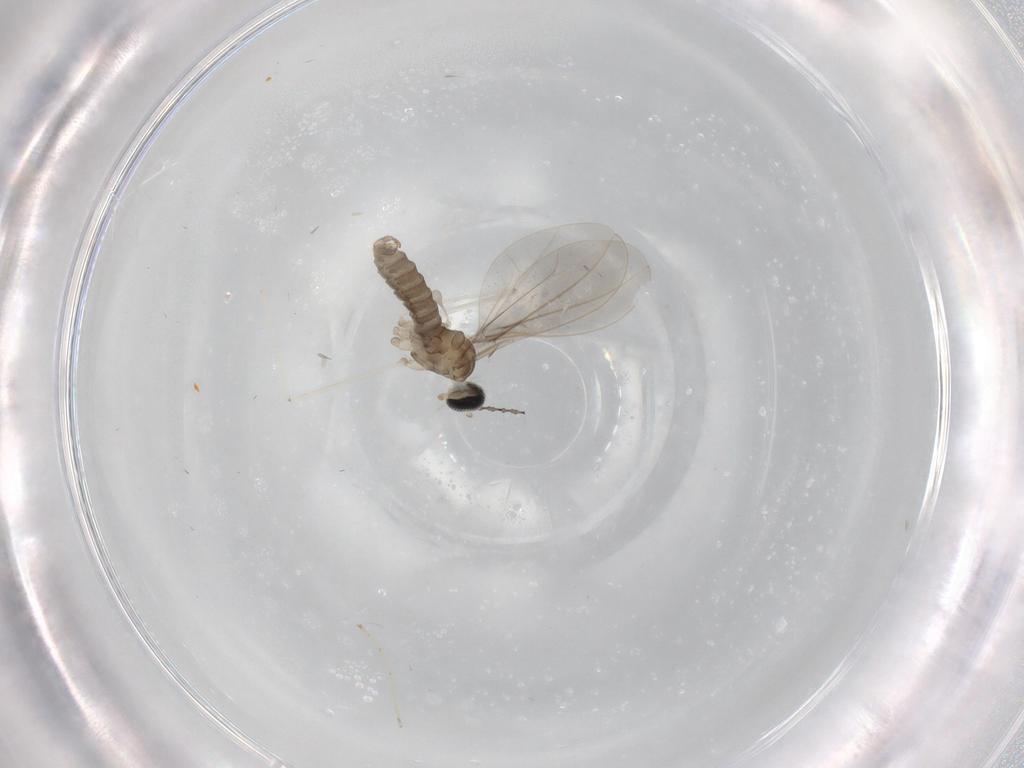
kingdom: Animalia
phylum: Arthropoda
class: Insecta
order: Diptera
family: Cecidomyiidae
